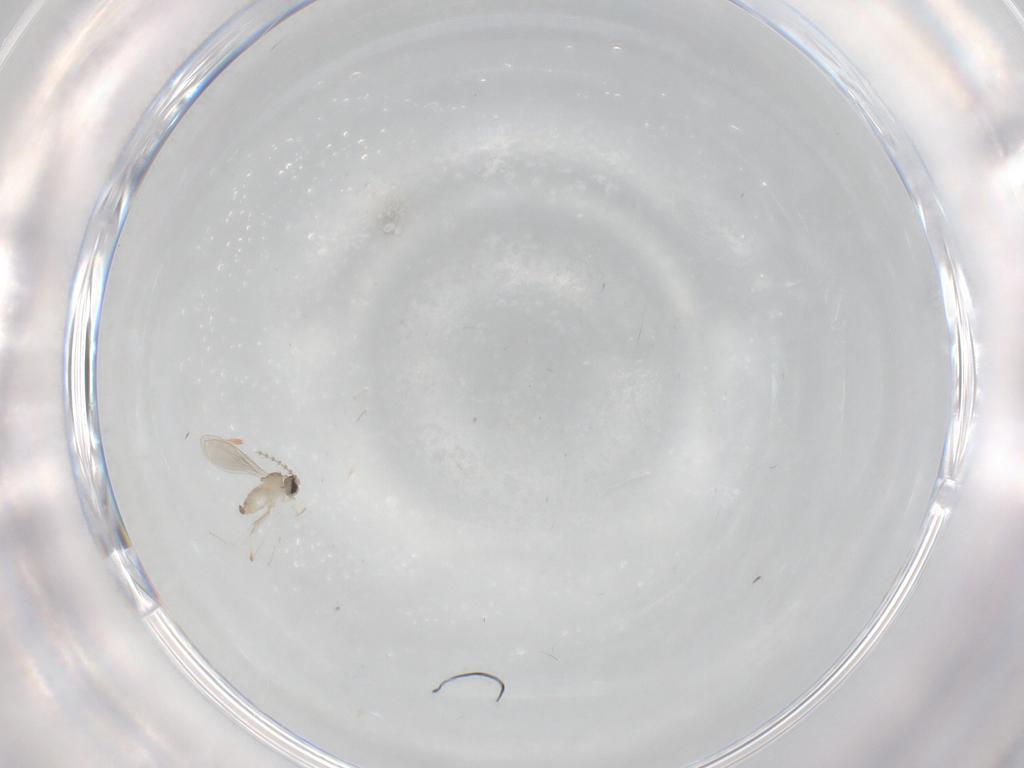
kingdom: Animalia
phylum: Arthropoda
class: Insecta
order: Diptera
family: Cecidomyiidae
